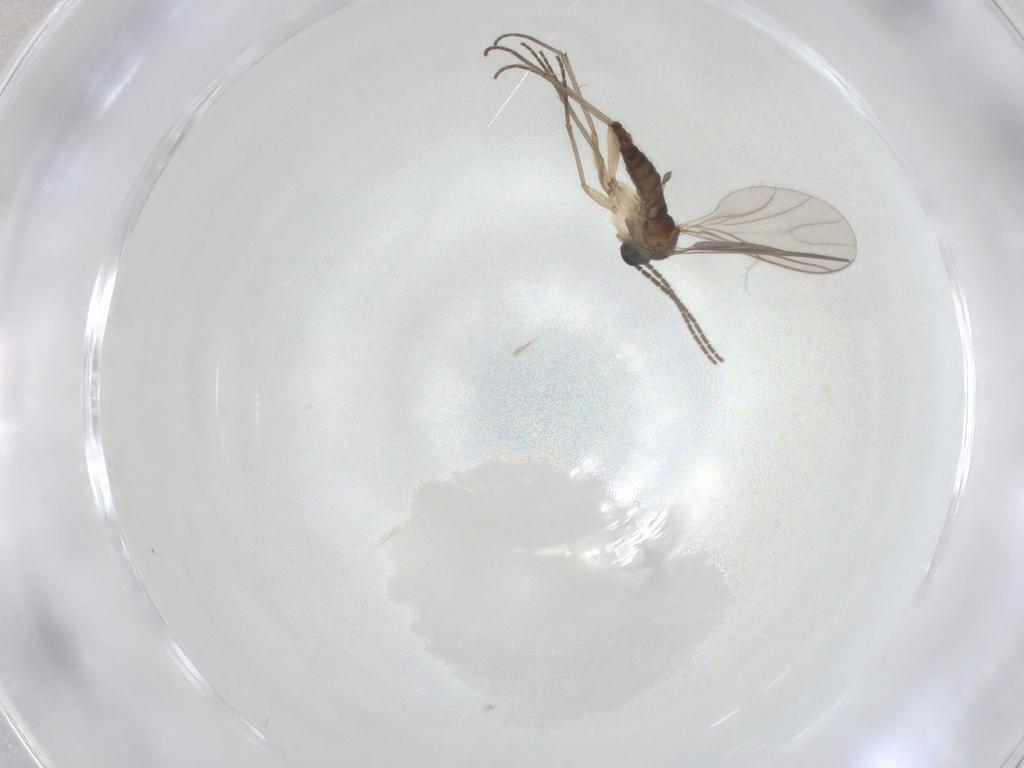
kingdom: Animalia
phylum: Arthropoda
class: Insecta
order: Diptera
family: Sciaridae
